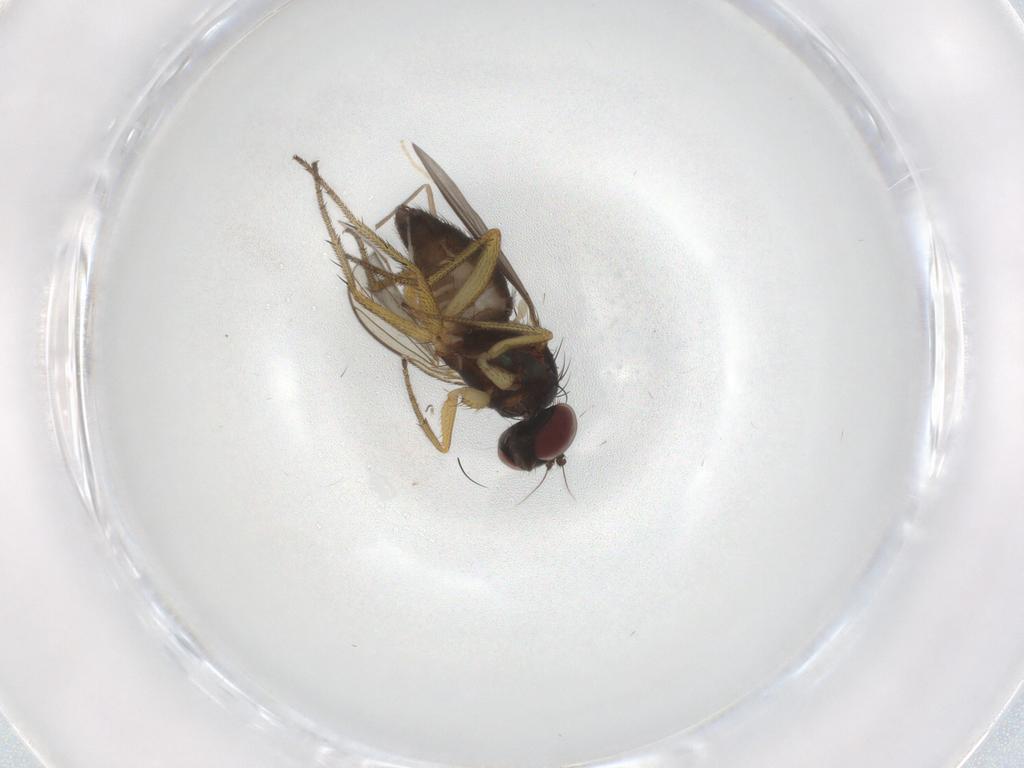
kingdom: Animalia
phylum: Arthropoda
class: Insecta
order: Diptera
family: Dolichopodidae
